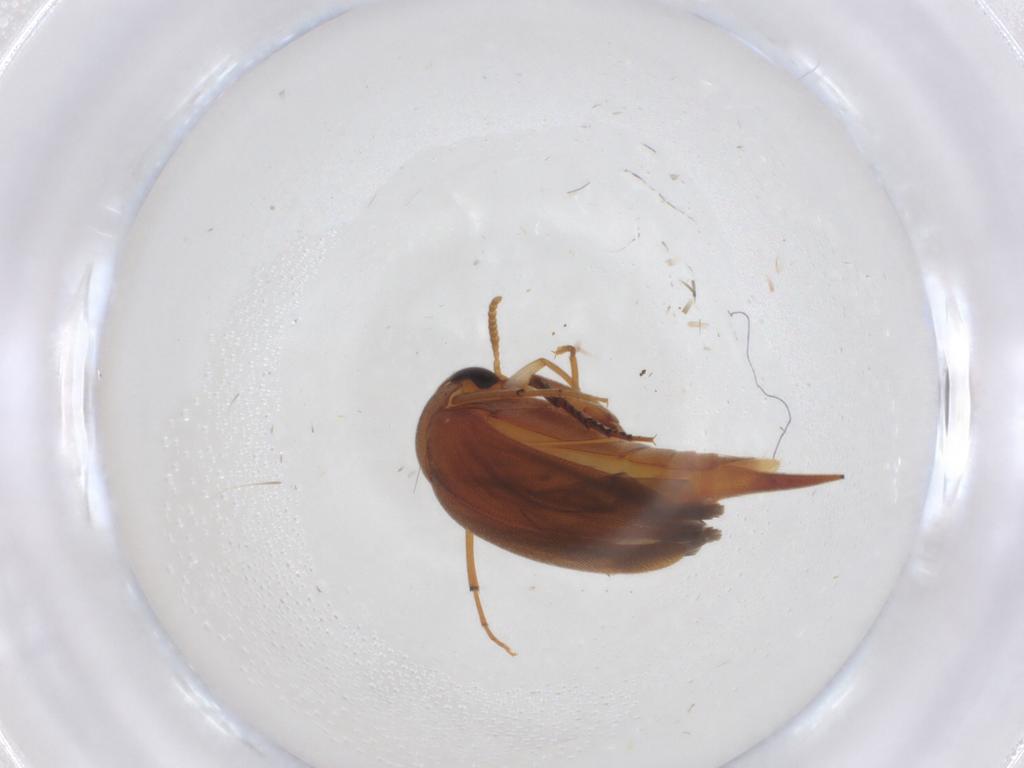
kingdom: Animalia
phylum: Arthropoda
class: Insecta
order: Coleoptera
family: Mordellidae
